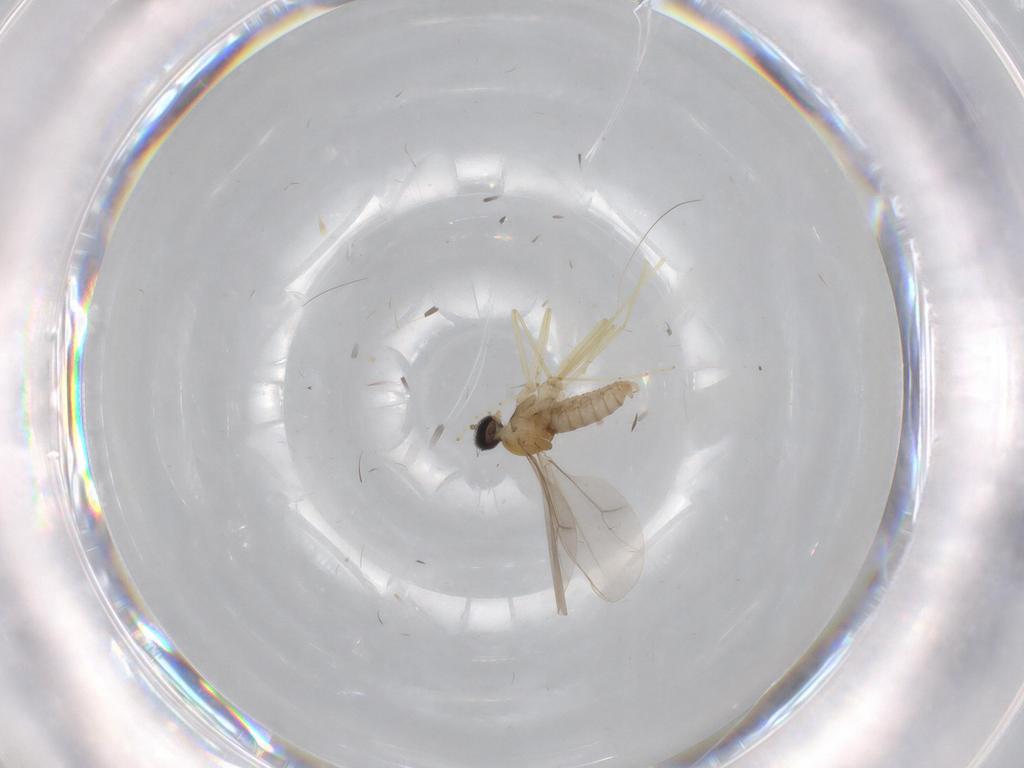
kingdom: Animalia
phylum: Arthropoda
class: Insecta
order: Diptera
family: Cecidomyiidae
